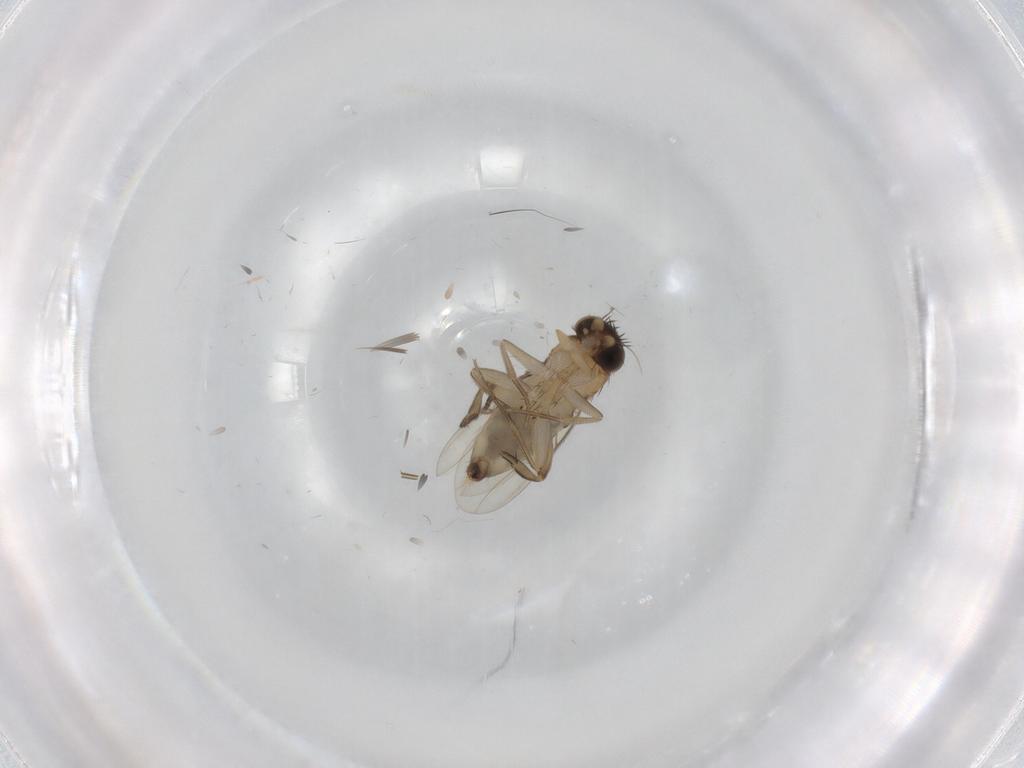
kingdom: Animalia
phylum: Arthropoda
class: Insecta
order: Diptera
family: Phoridae
